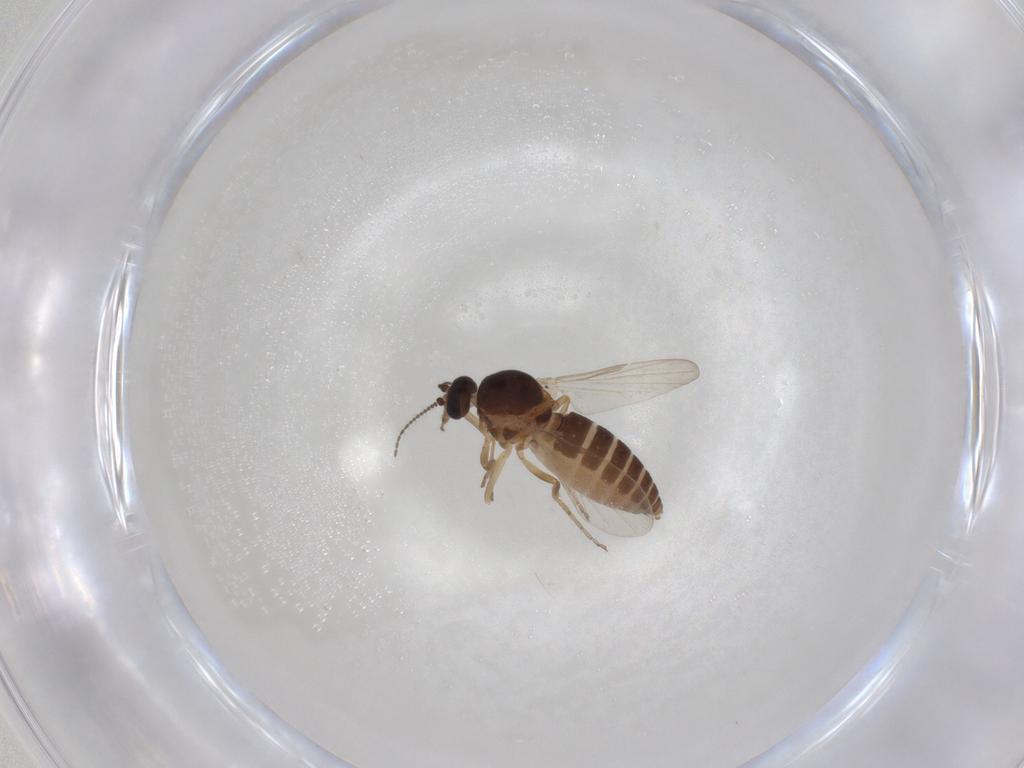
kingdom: Animalia
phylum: Arthropoda
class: Insecta
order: Diptera
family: Ceratopogonidae
